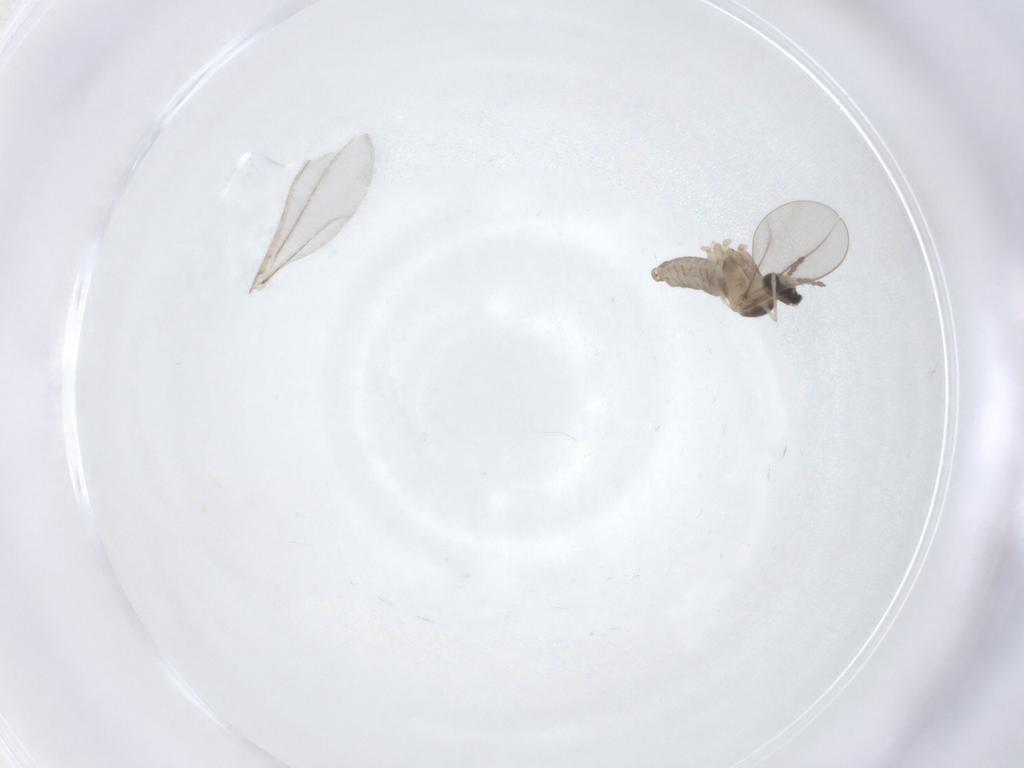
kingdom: Animalia
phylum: Arthropoda
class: Insecta
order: Diptera
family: Cecidomyiidae
